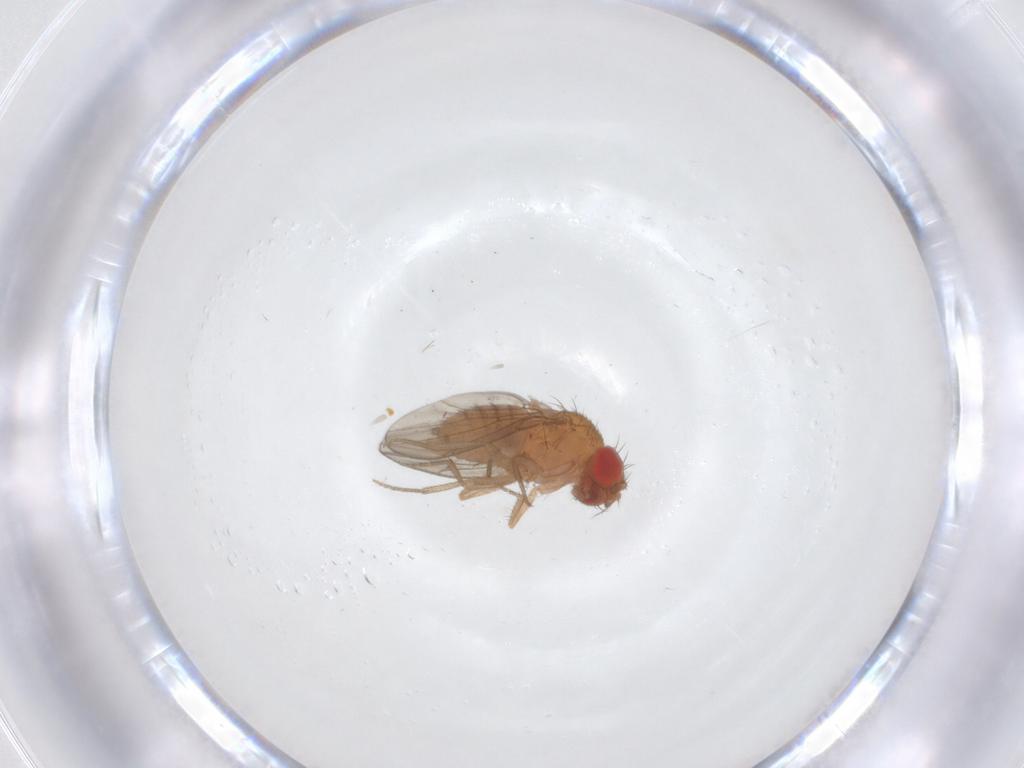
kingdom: Animalia
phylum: Arthropoda
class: Insecta
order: Diptera
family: Drosophilidae
